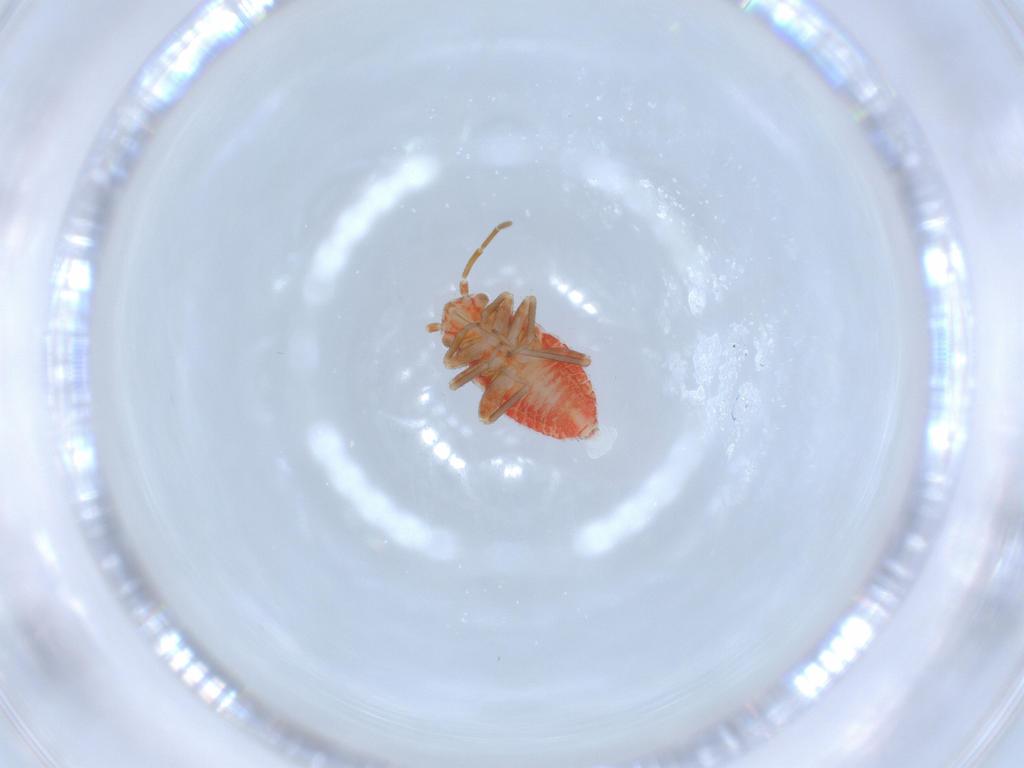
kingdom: Animalia
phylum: Arthropoda
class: Insecta
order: Hemiptera
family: Miridae
